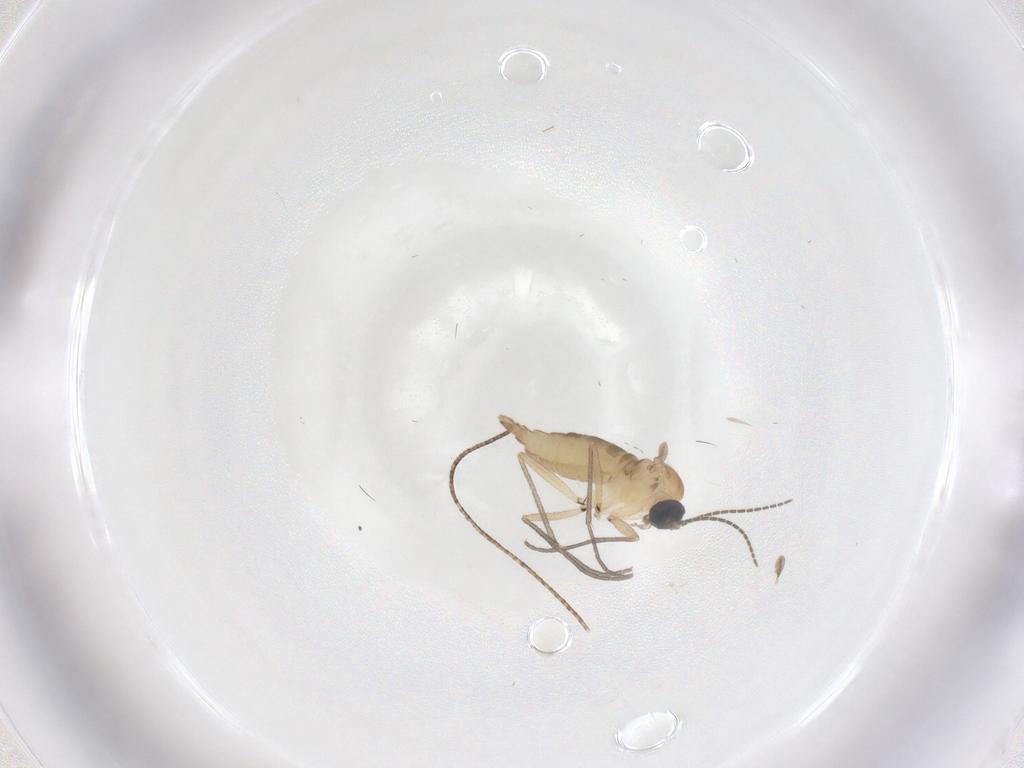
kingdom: Animalia
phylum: Arthropoda
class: Insecta
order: Diptera
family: Sciaridae
